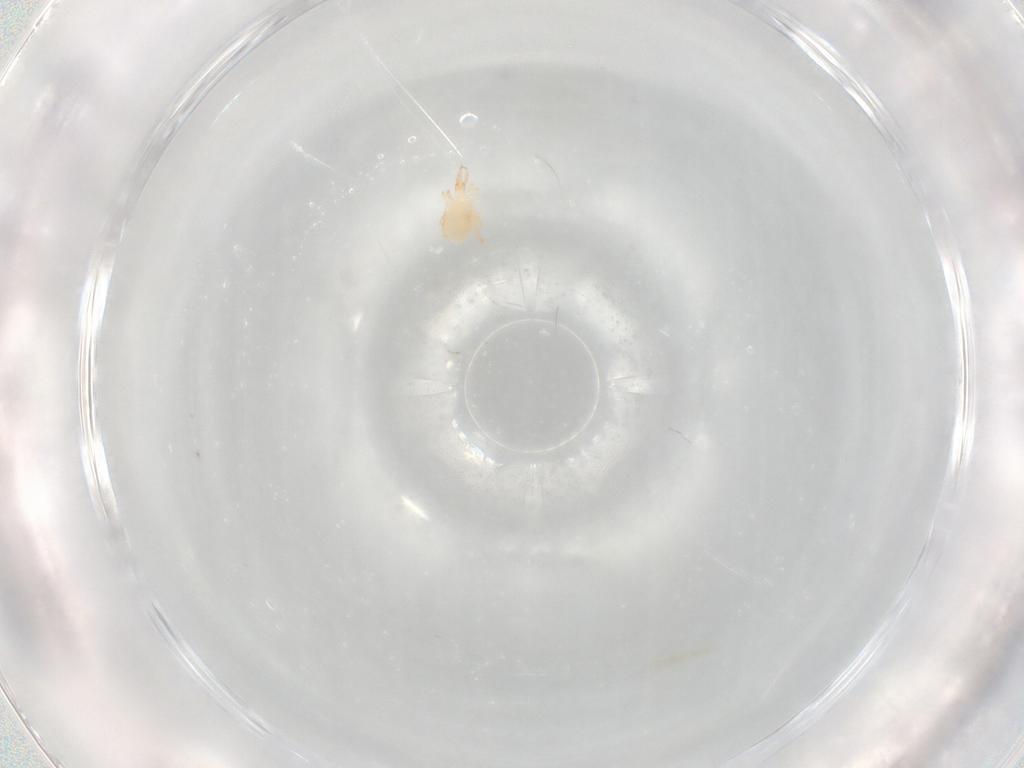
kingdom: Animalia
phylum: Arthropoda
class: Arachnida
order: Trombidiformes
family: Cunaxidae
